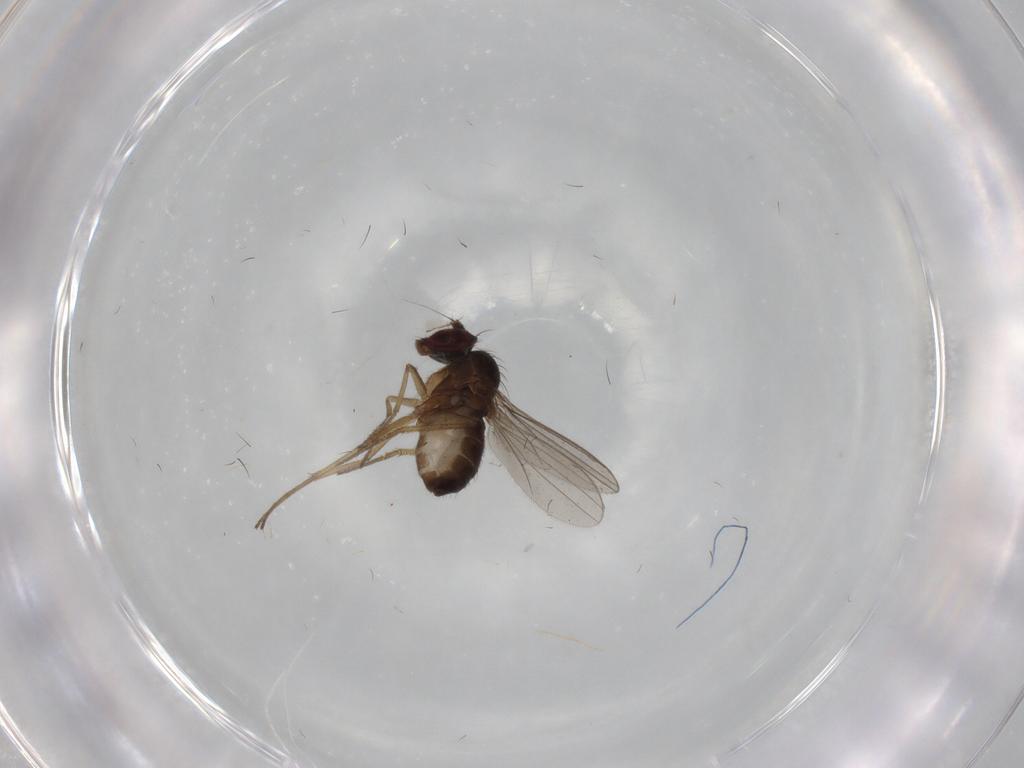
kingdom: Animalia
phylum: Arthropoda
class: Insecta
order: Diptera
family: Dolichopodidae
